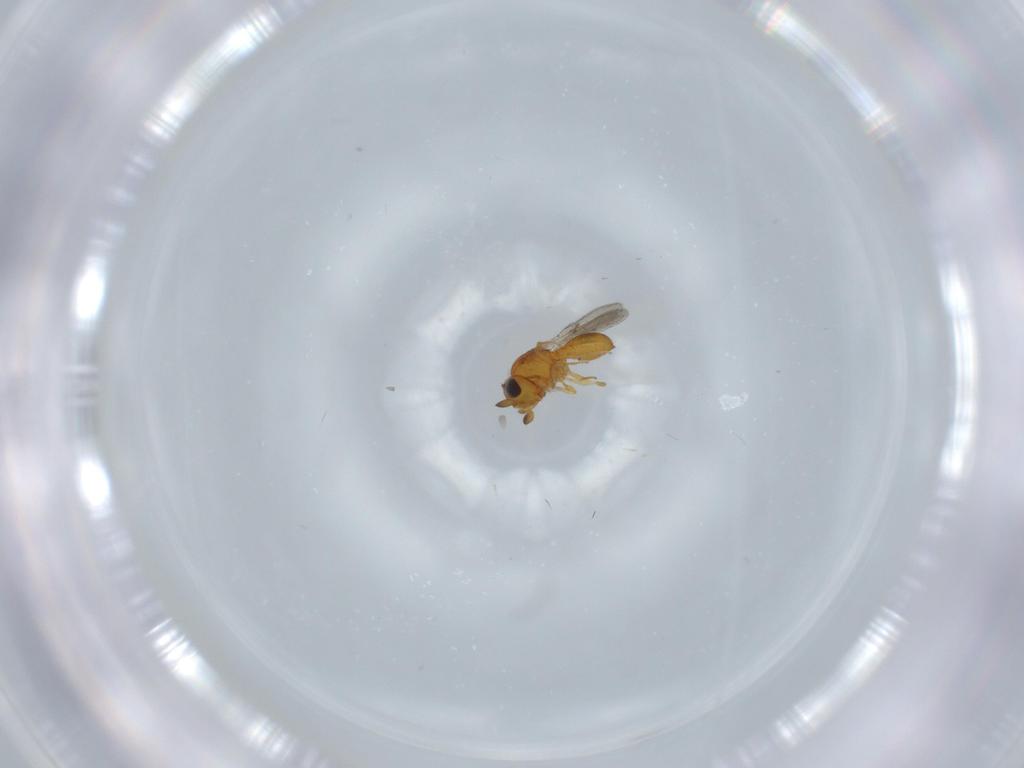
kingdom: Animalia
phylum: Arthropoda
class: Insecta
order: Hymenoptera
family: Scelionidae
